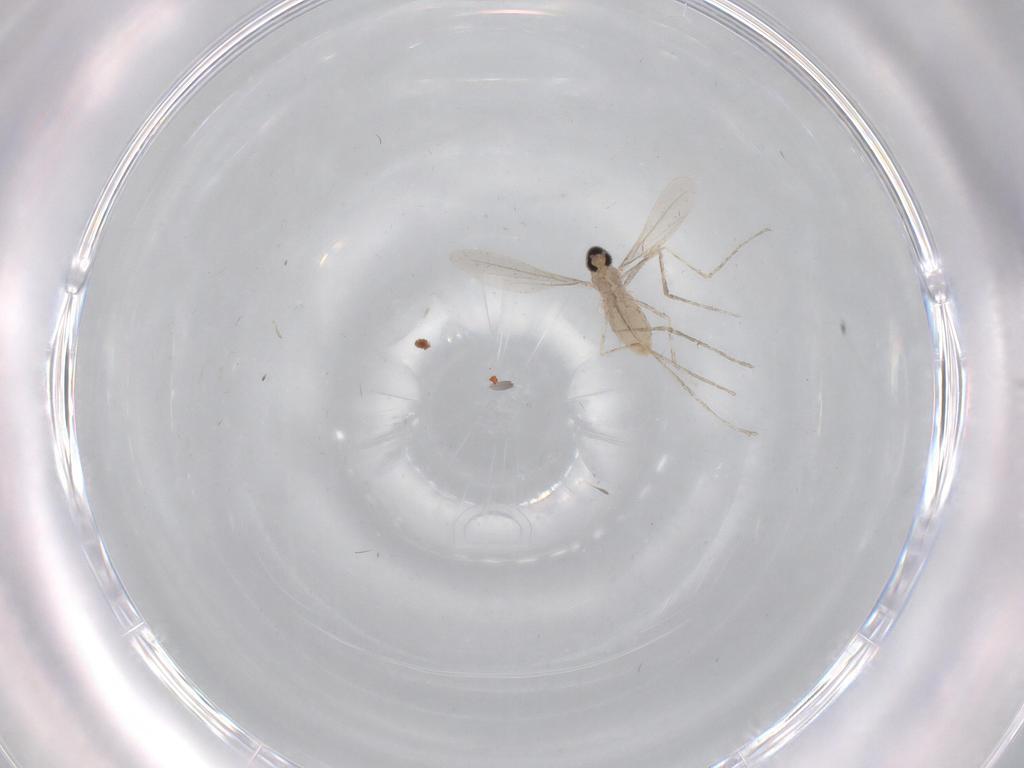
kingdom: Animalia
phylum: Arthropoda
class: Insecta
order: Diptera
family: Cecidomyiidae
